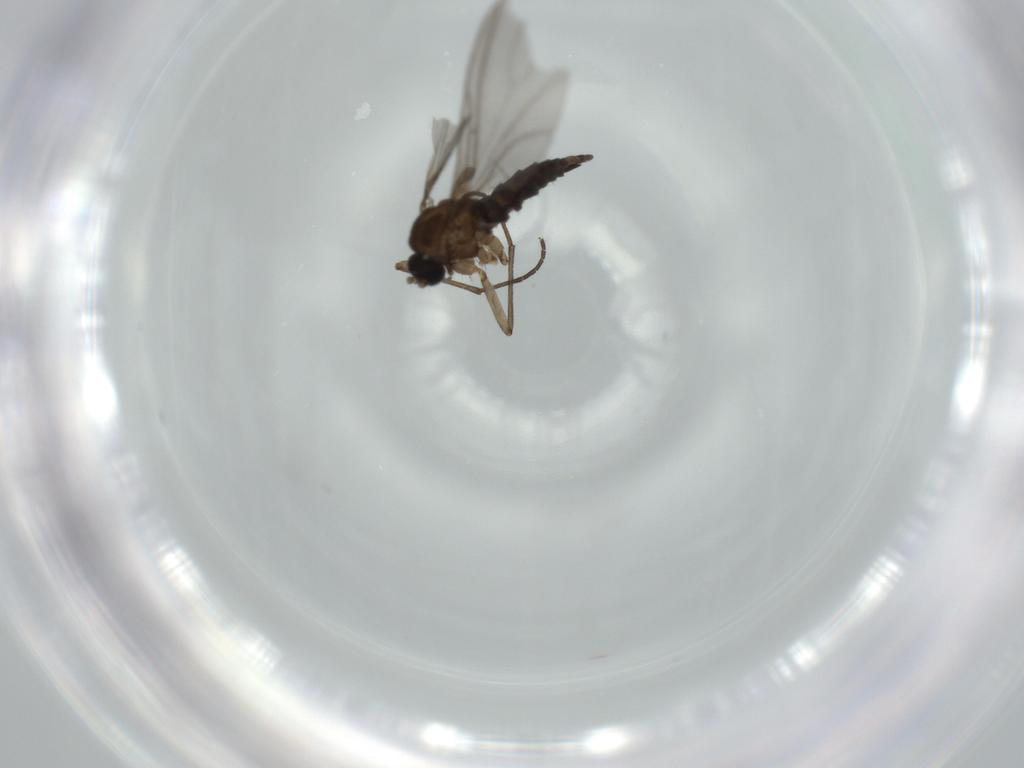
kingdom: Animalia
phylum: Arthropoda
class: Insecta
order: Diptera
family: Sciaridae
